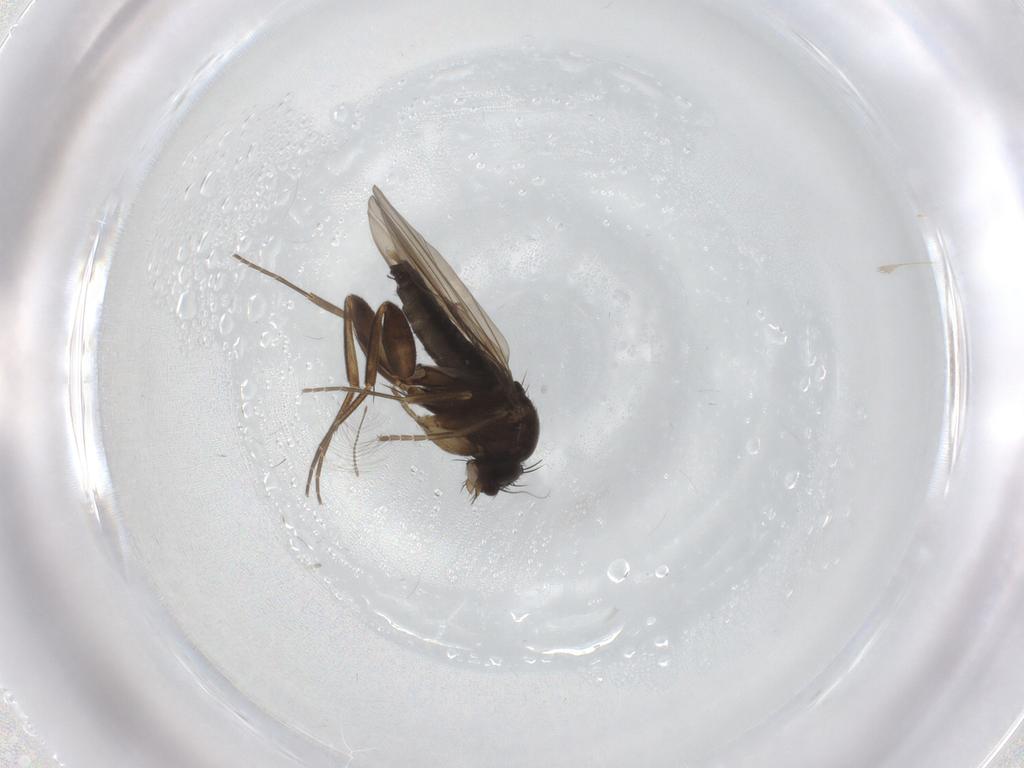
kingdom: Animalia
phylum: Arthropoda
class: Insecta
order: Diptera
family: Phoridae
